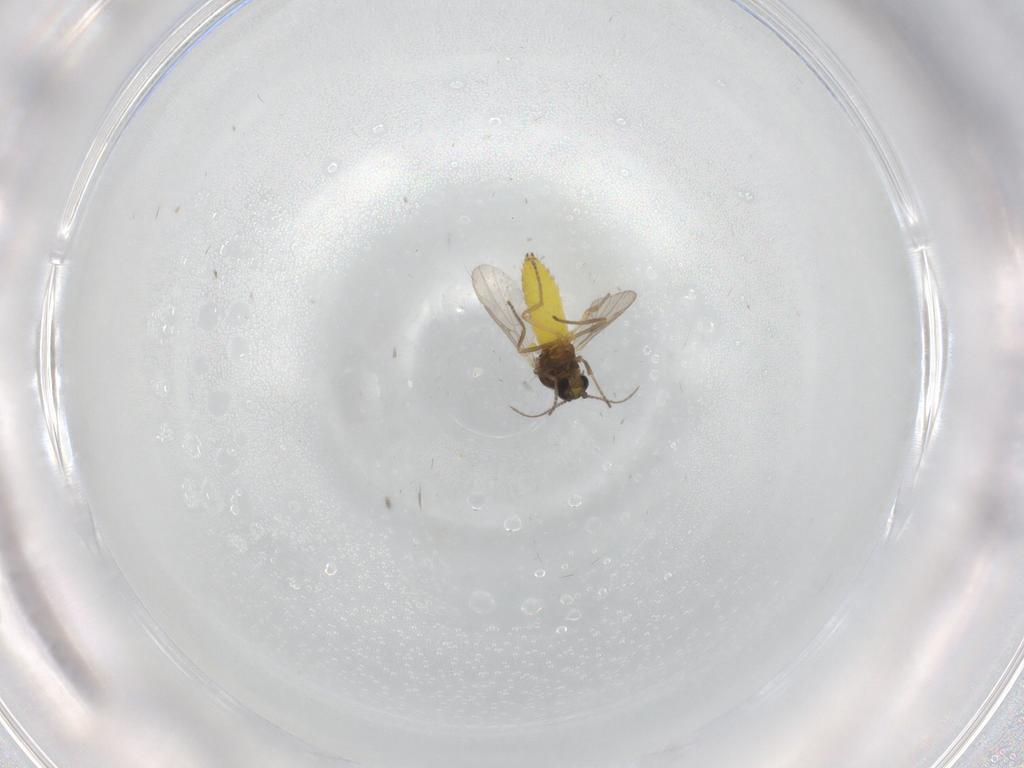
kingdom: Animalia
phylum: Arthropoda
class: Insecta
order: Diptera
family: Ceratopogonidae
